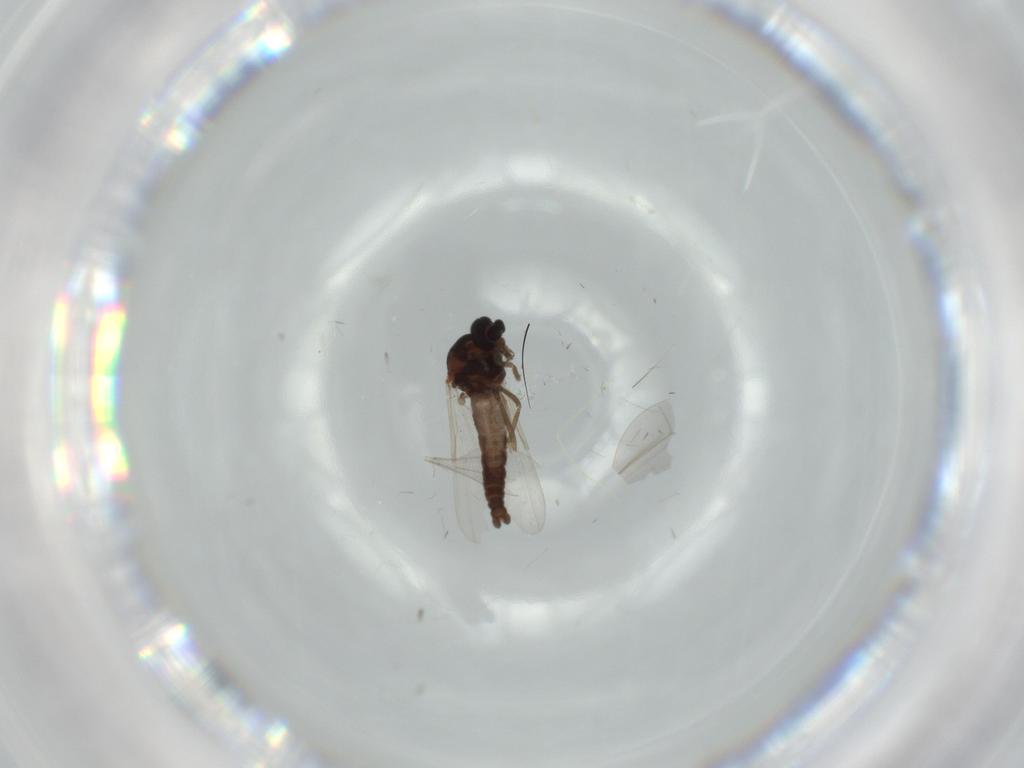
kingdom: Animalia
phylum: Arthropoda
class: Insecta
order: Diptera
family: Ceratopogonidae
